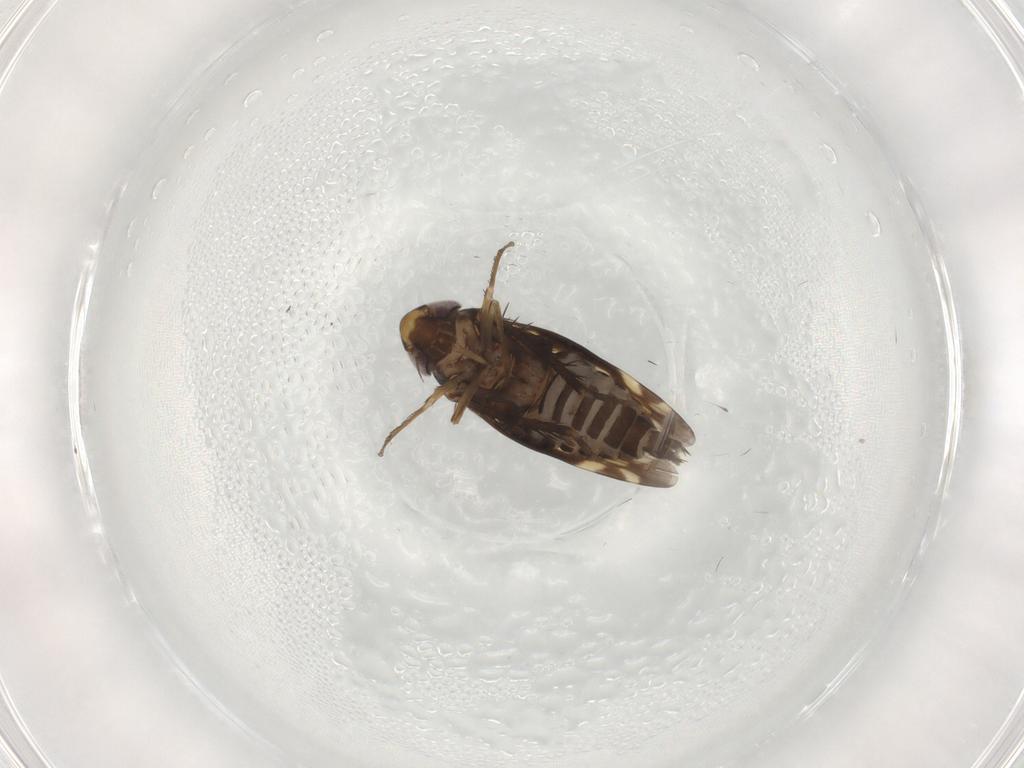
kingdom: Animalia
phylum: Arthropoda
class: Insecta
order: Hemiptera
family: Cicadellidae
